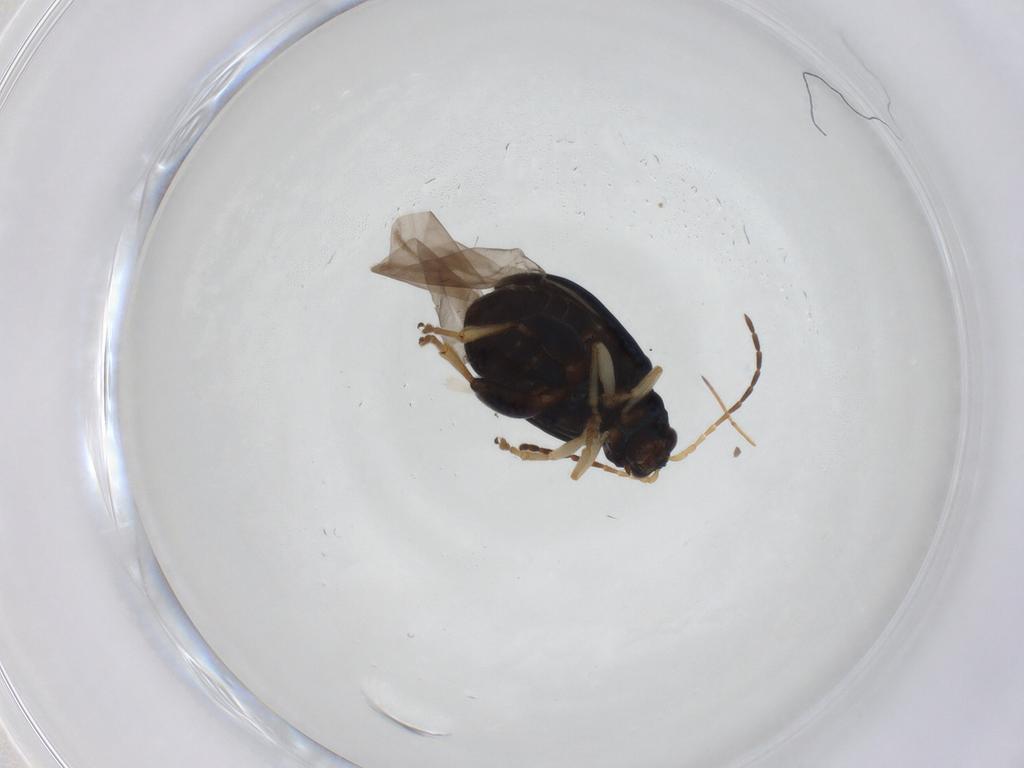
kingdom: Animalia
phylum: Arthropoda
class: Insecta
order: Coleoptera
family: Chrysomelidae
